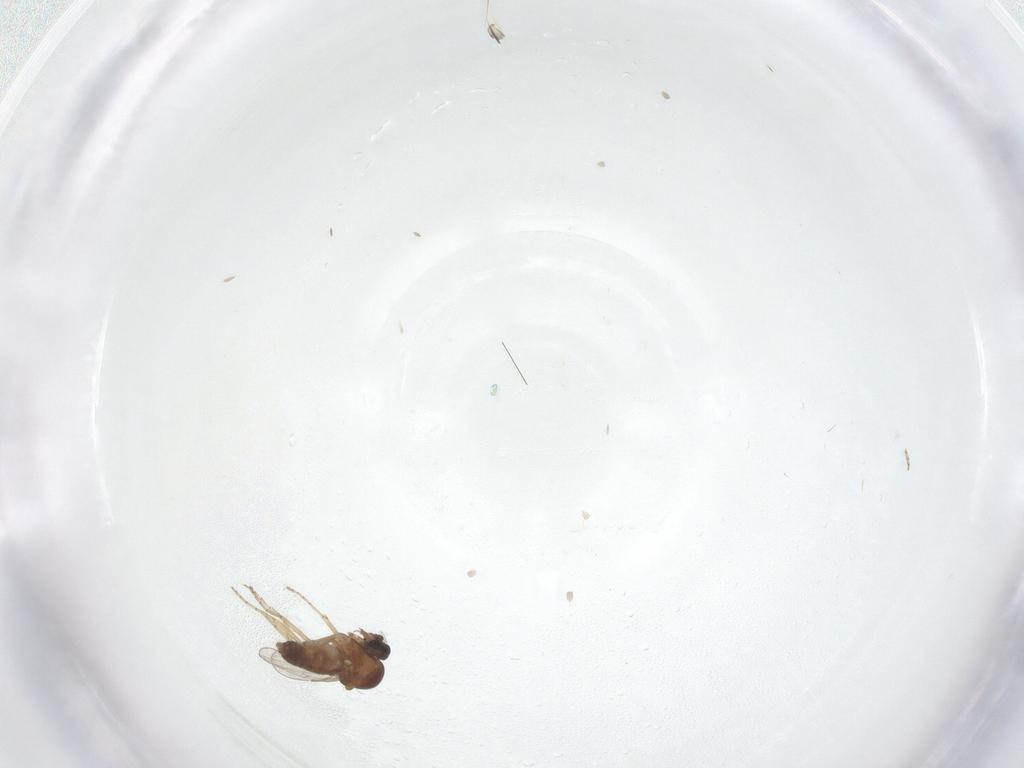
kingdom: Animalia
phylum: Arthropoda
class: Insecta
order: Diptera
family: Ceratopogonidae
